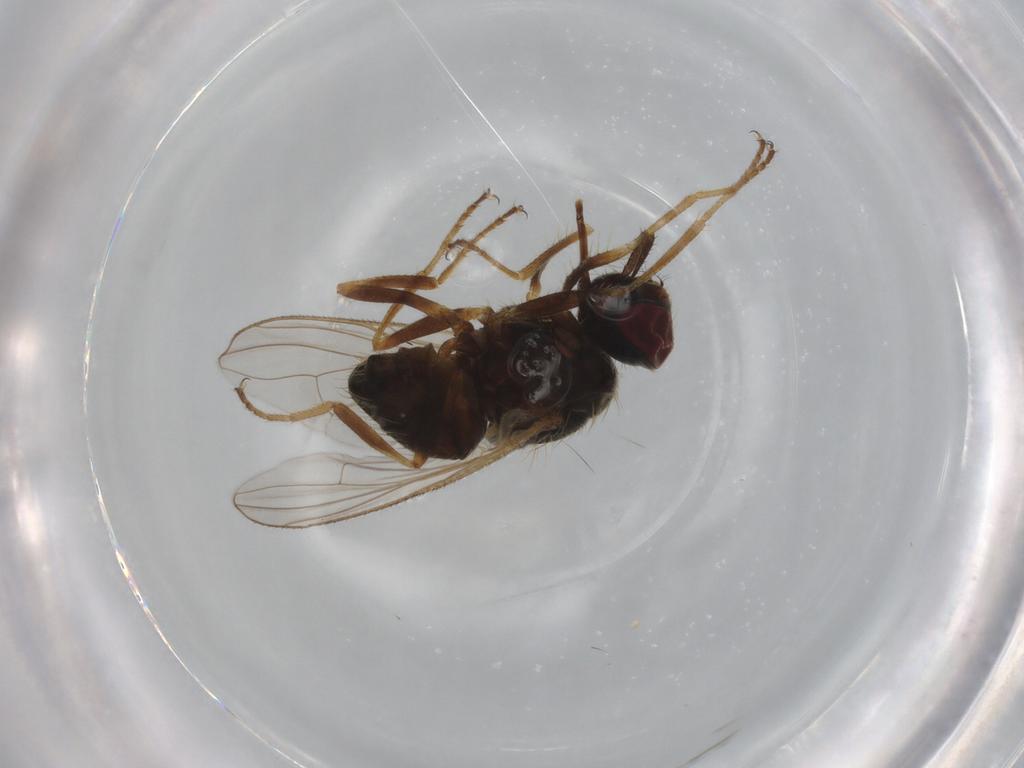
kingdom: Animalia
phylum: Arthropoda
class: Insecta
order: Diptera
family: Chironomidae
